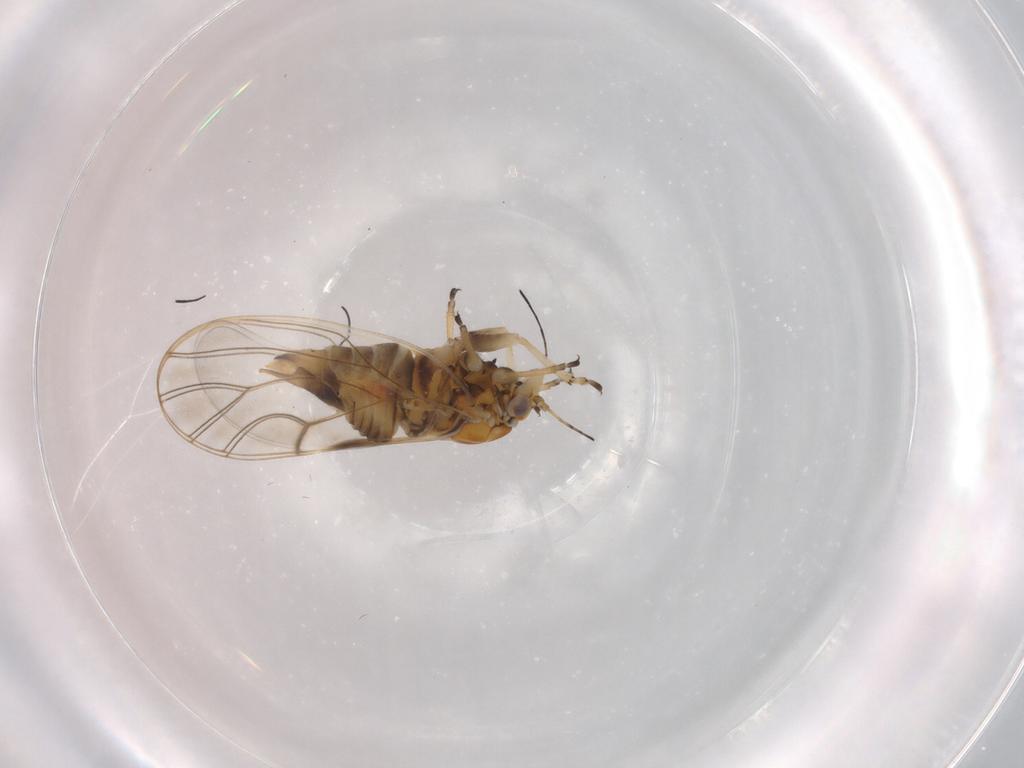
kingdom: Animalia
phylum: Arthropoda
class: Insecta
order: Hemiptera
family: Aphididae
